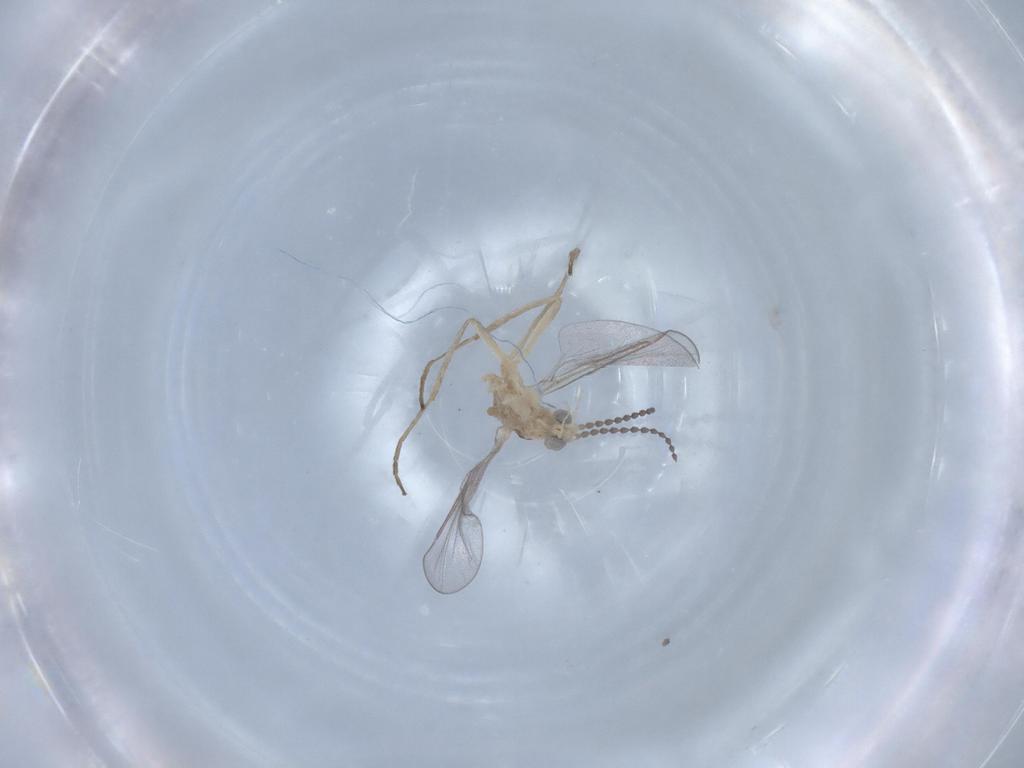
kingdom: Animalia
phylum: Arthropoda
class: Insecta
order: Diptera
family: Cecidomyiidae
